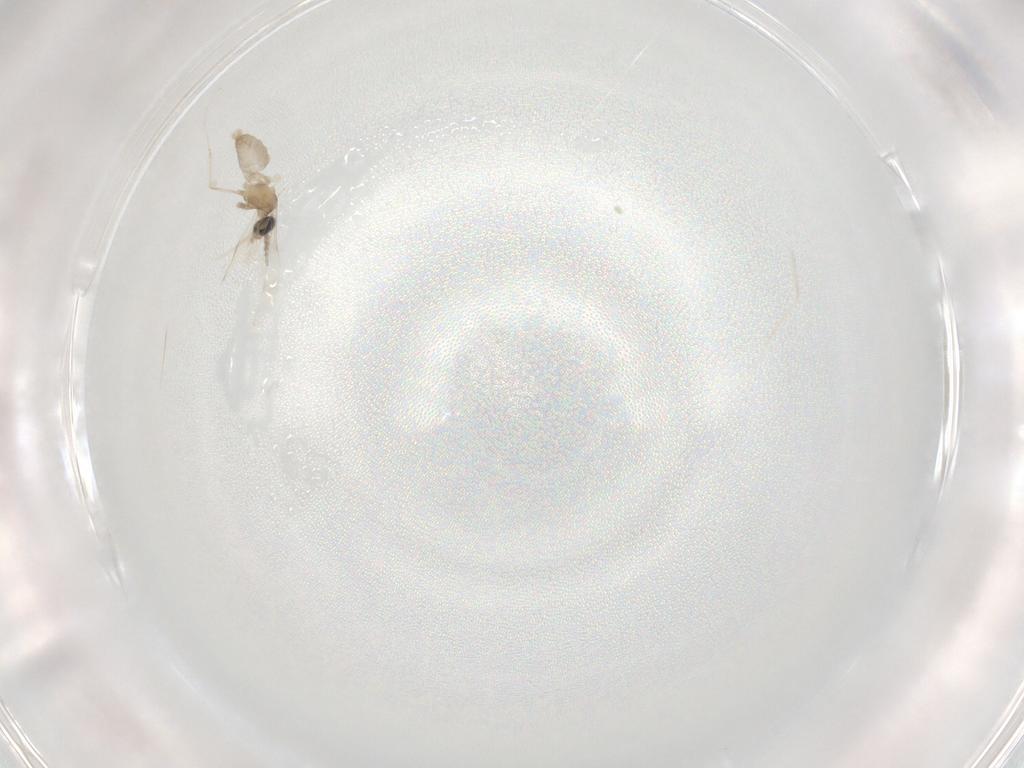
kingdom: Animalia
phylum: Arthropoda
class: Insecta
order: Diptera
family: Cecidomyiidae
